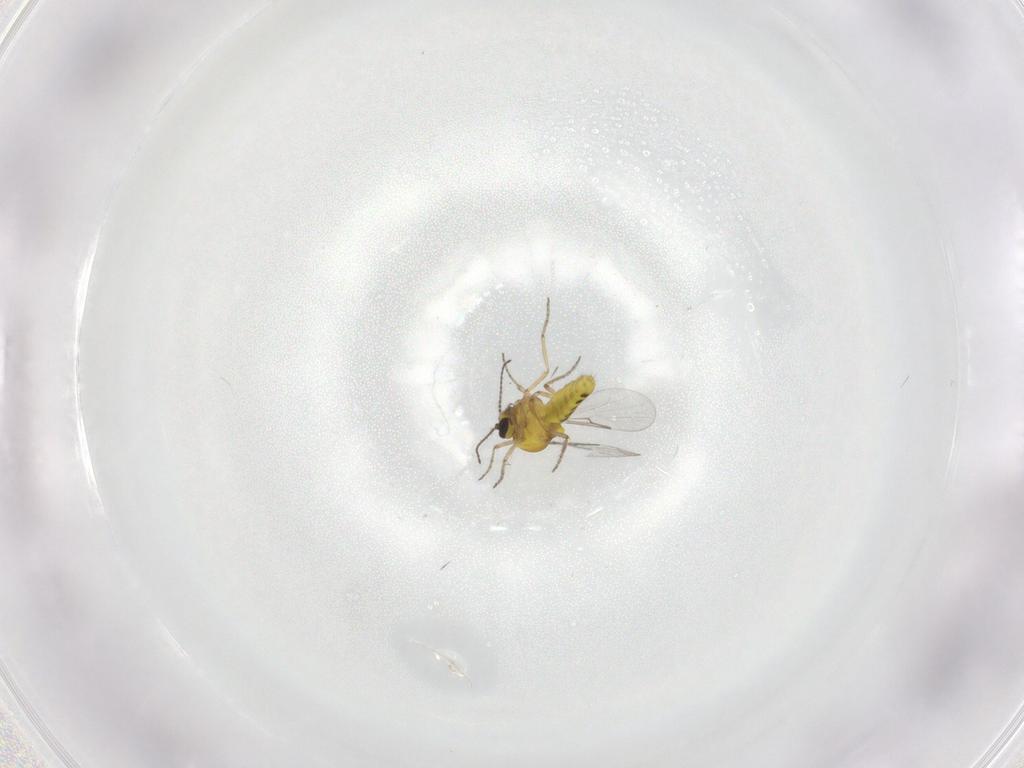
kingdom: Animalia
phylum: Arthropoda
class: Insecta
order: Diptera
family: Ceratopogonidae
